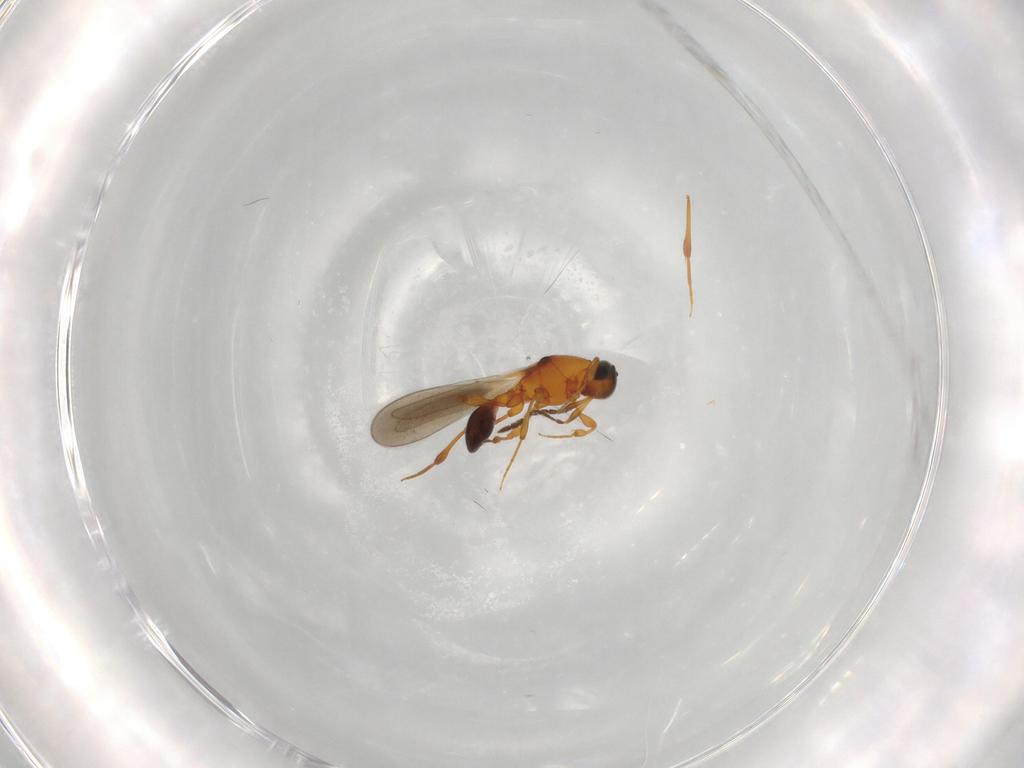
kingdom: Animalia
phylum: Arthropoda
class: Insecta
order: Hymenoptera
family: Platygastridae
